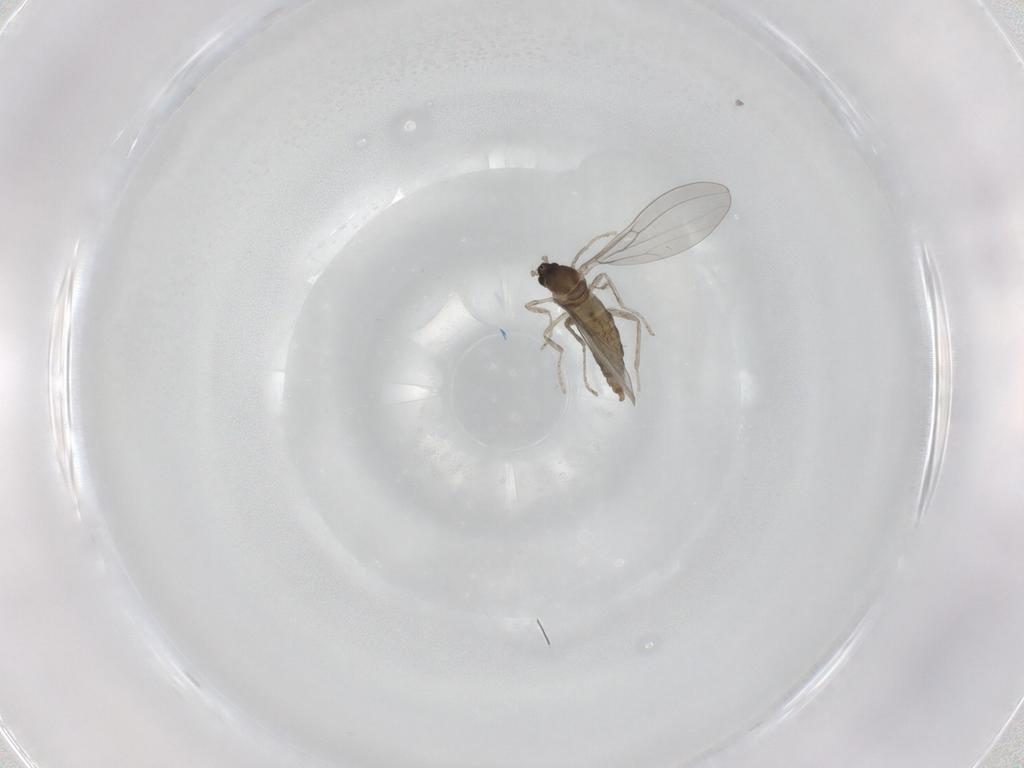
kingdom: Animalia
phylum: Arthropoda
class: Insecta
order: Diptera
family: Cecidomyiidae
